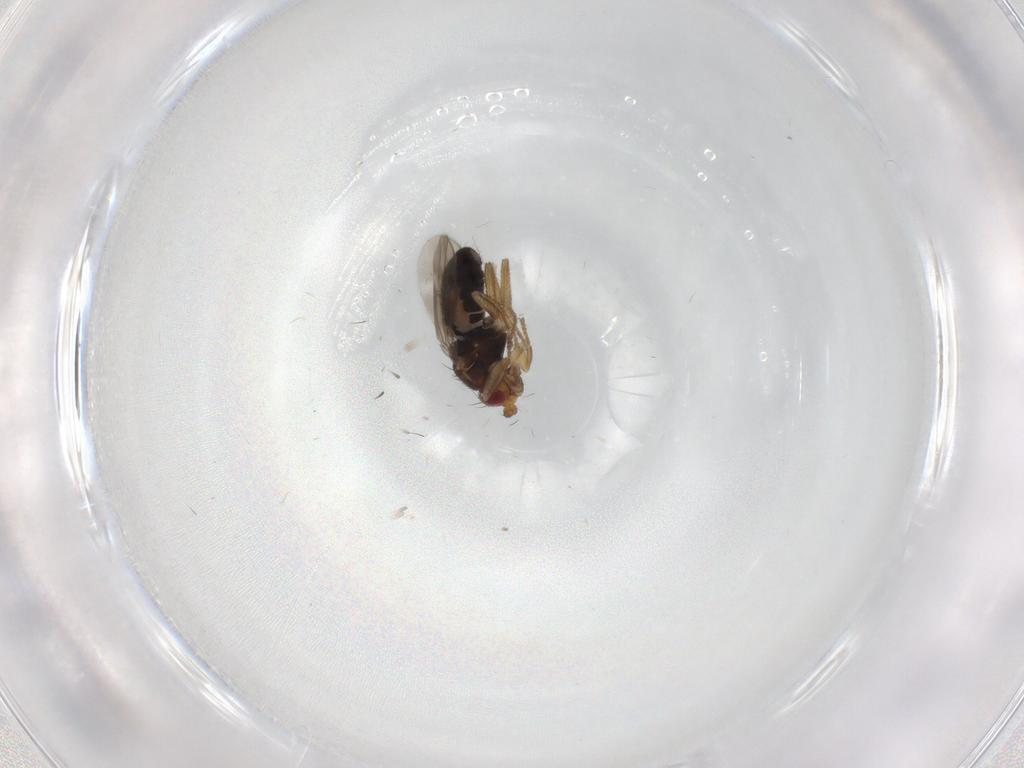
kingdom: Animalia
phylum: Arthropoda
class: Insecta
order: Diptera
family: Sphaeroceridae
